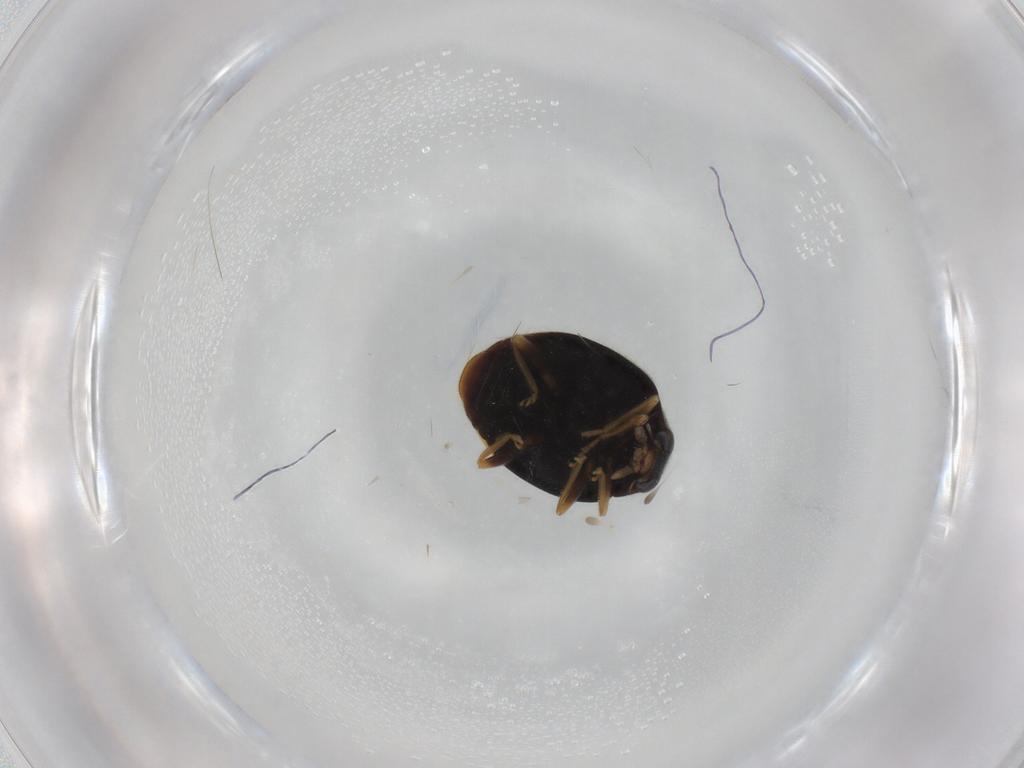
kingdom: Animalia
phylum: Arthropoda
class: Insecta
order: Coleoptera
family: Coccinellidae
